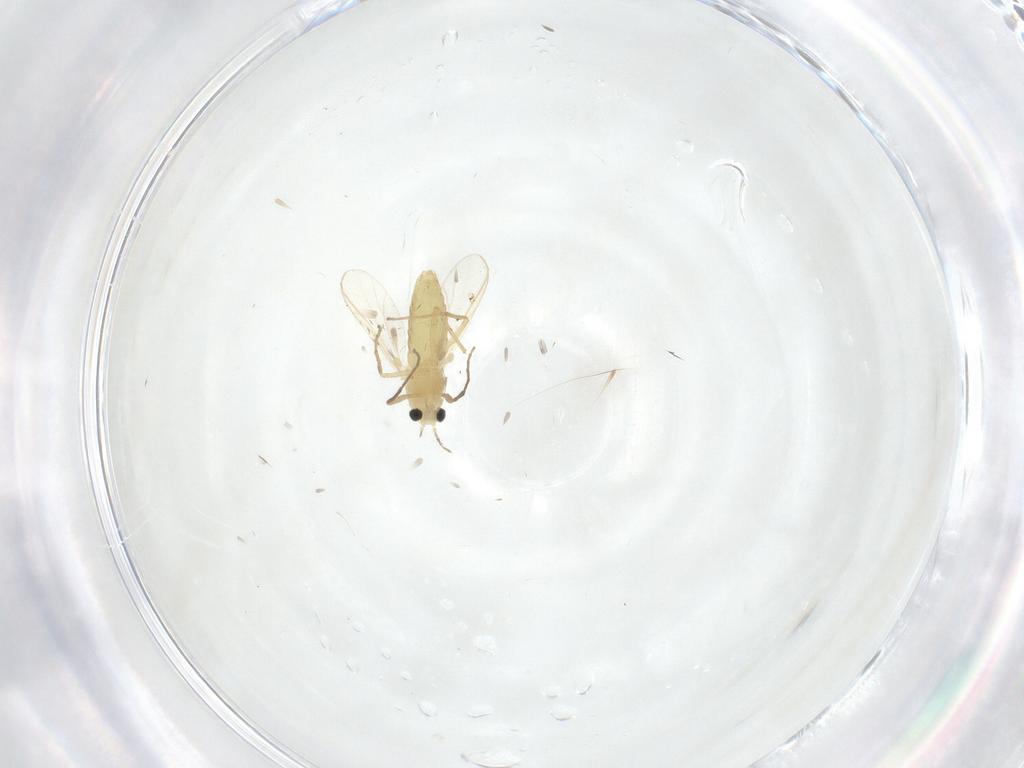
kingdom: Animalia
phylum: Arthropoda
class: Insecta
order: Diptera
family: Chironomidae
